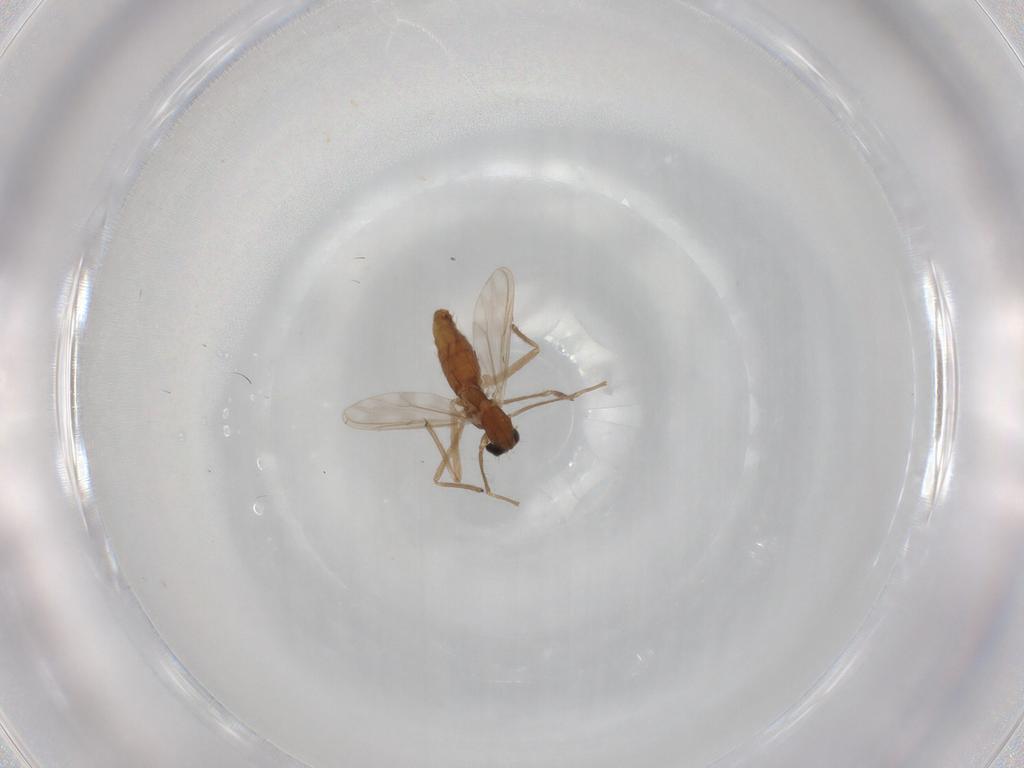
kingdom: Animalia
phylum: Arthropoda
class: Insecta
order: Diptera
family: Chironomidae
